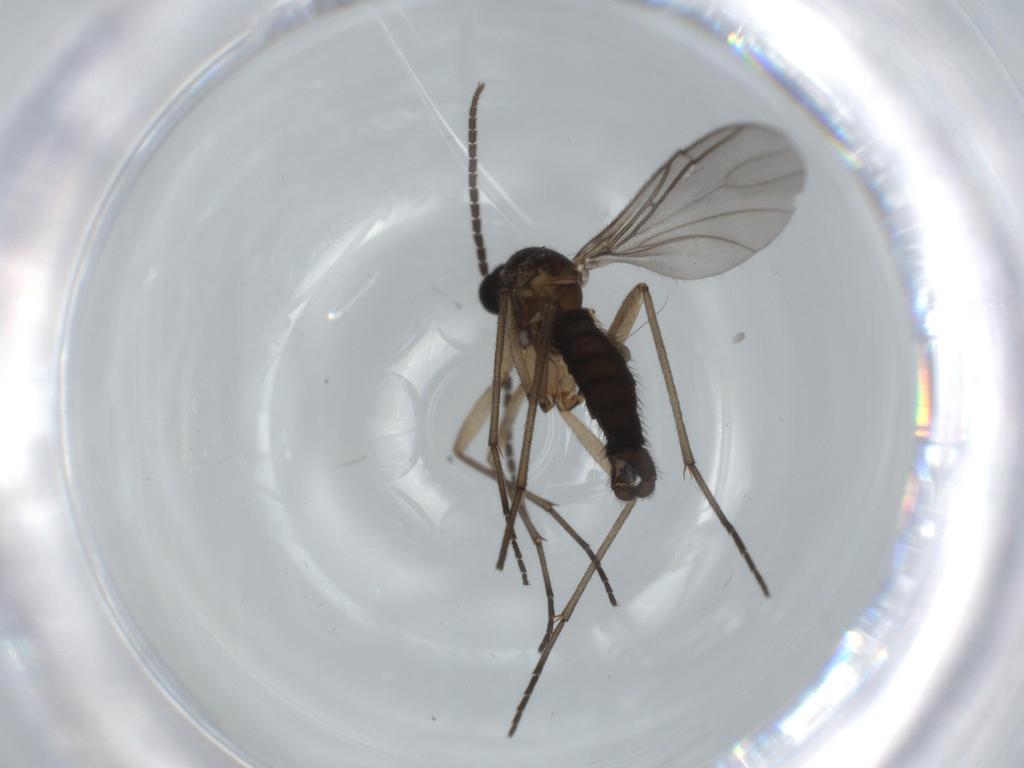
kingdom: Animalia
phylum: Arthropoda
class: Insecta
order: Diptera
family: Sciaridae
